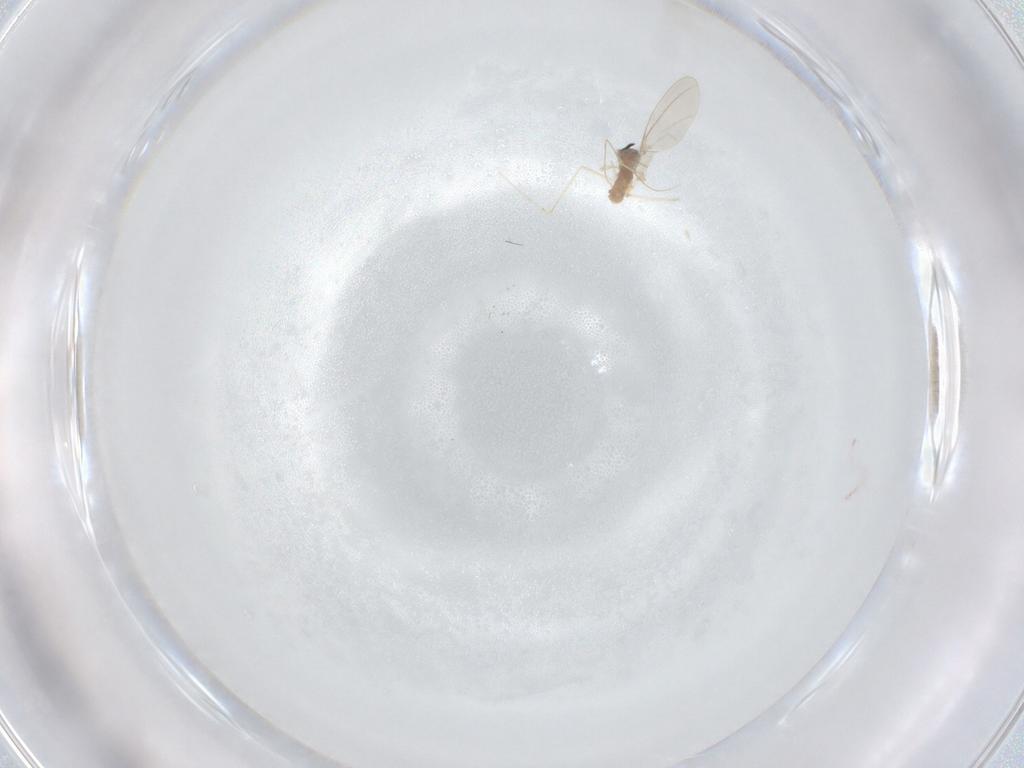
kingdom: Animalia
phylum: Arthropoda
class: Insecta
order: Diptera
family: Cecidomyiidae
